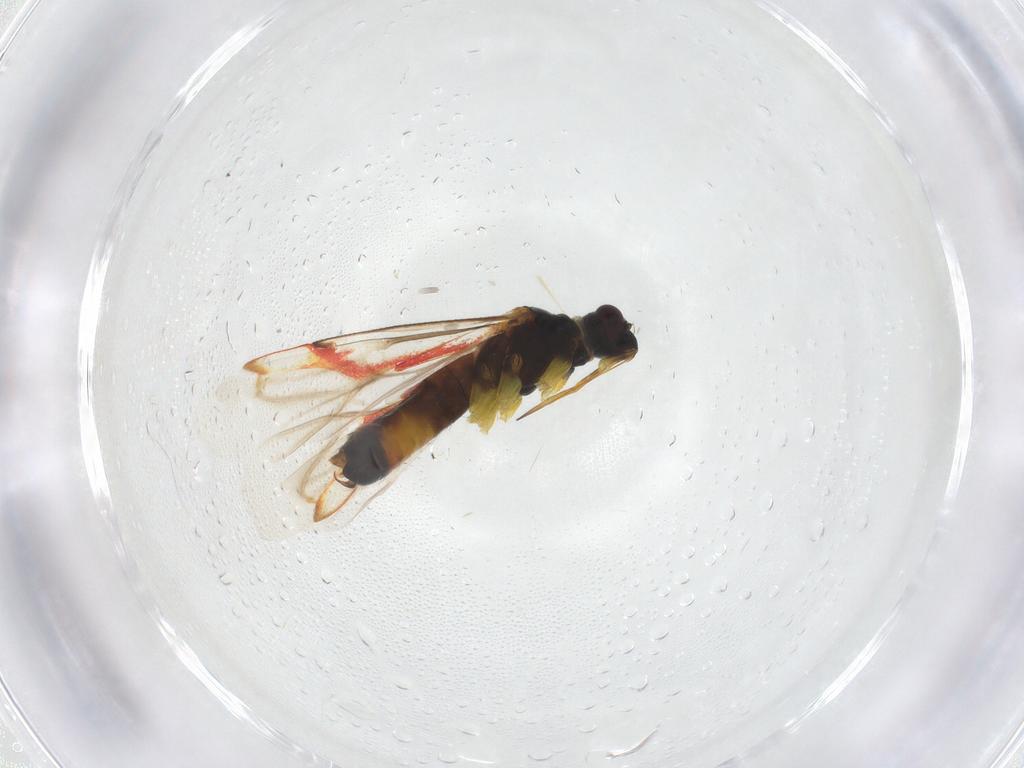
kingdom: Animalia
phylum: Arthropoda
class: Insecta
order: Hemiptera
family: Miridae
